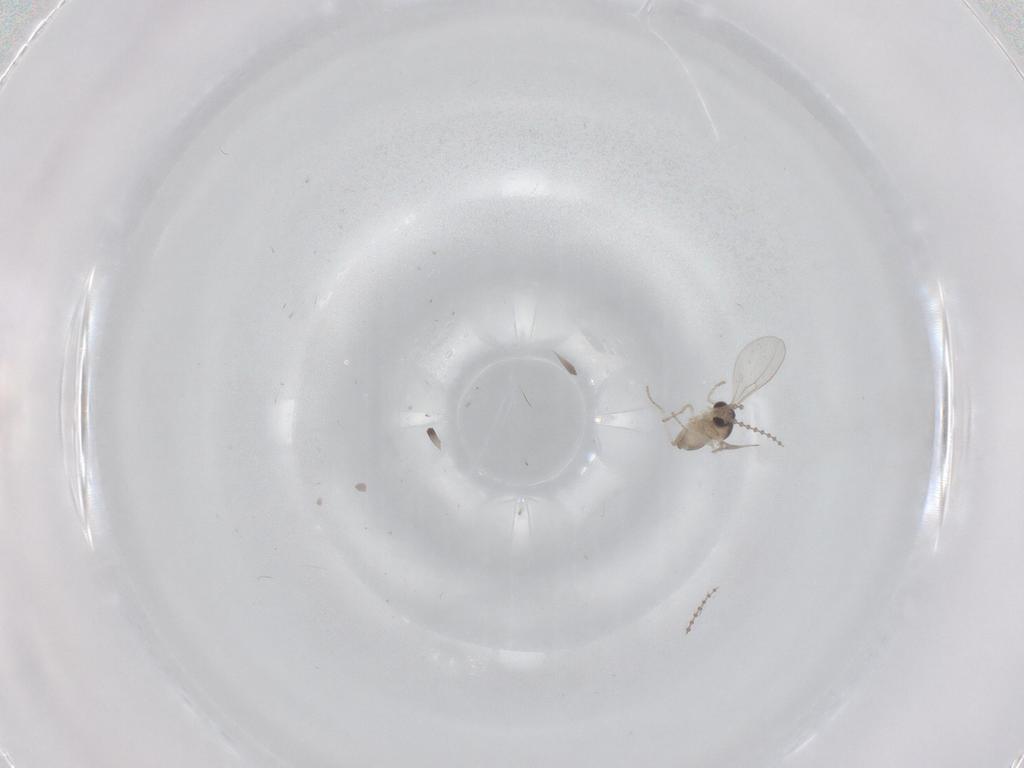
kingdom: Animalia
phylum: Arthropoda
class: Insecta
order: Diptera
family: Cecidomyiidae
